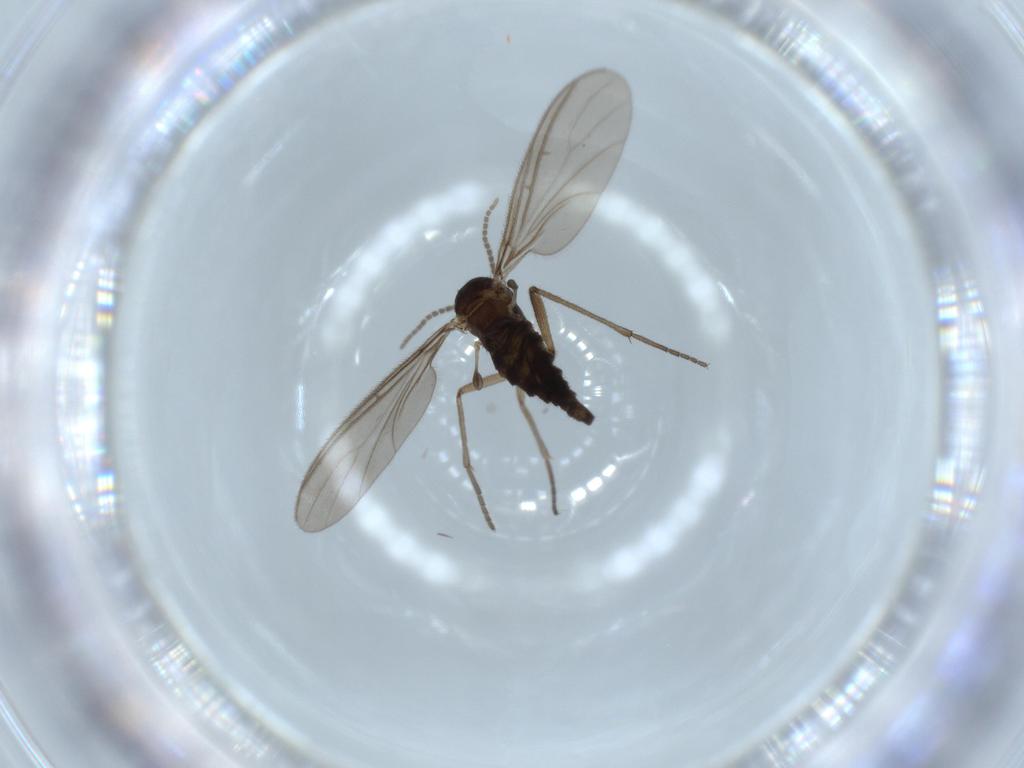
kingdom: Animalia
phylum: Arthropoda
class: Insecta
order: Diptera
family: Sciaridae
